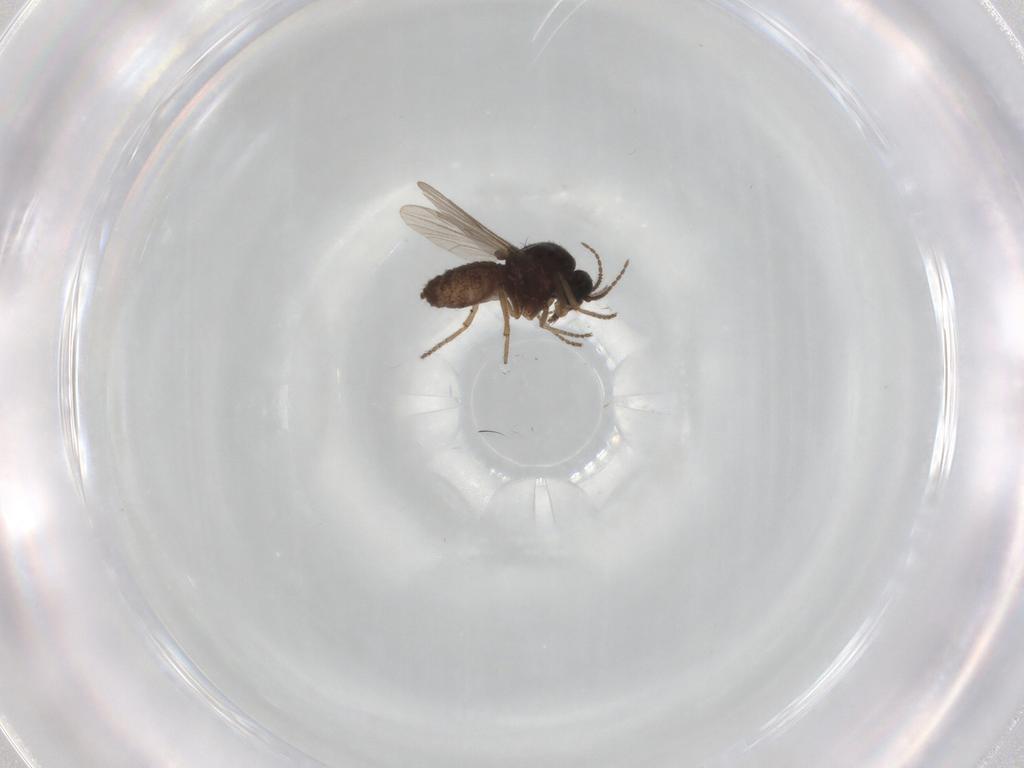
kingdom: Animalia
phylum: Arthropoda
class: Insecta
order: Diptera
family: Ceratopogonidae
